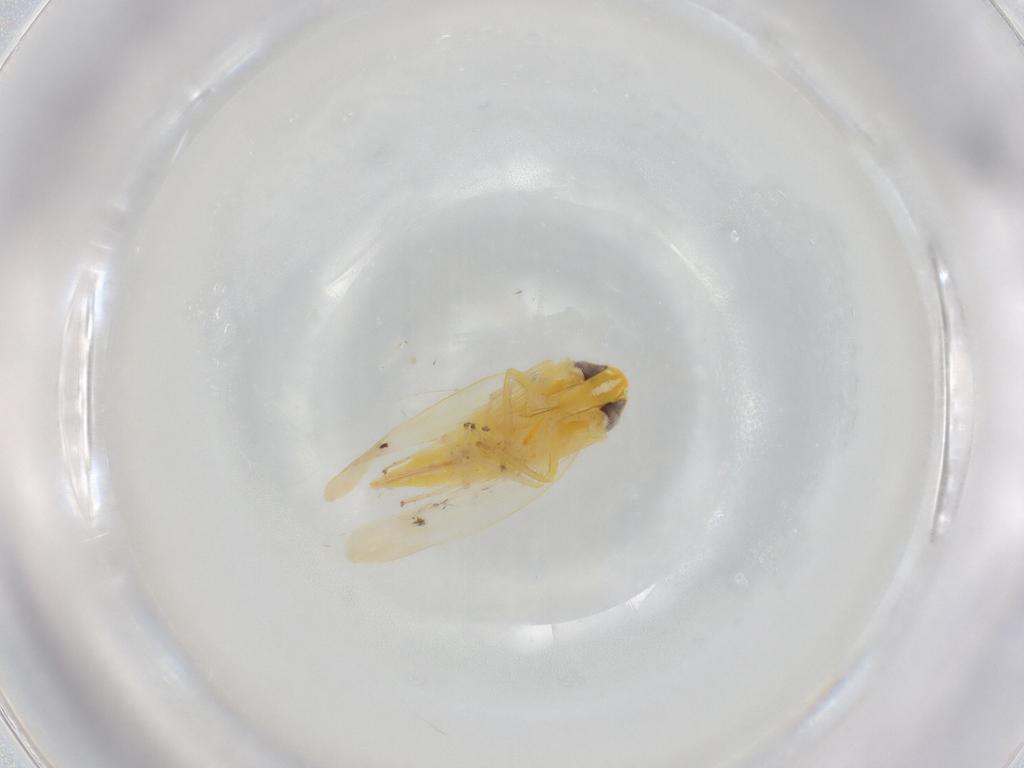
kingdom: Animalia
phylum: Arthropoda
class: Insecta
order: Hemiptera
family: Cicadellidae
